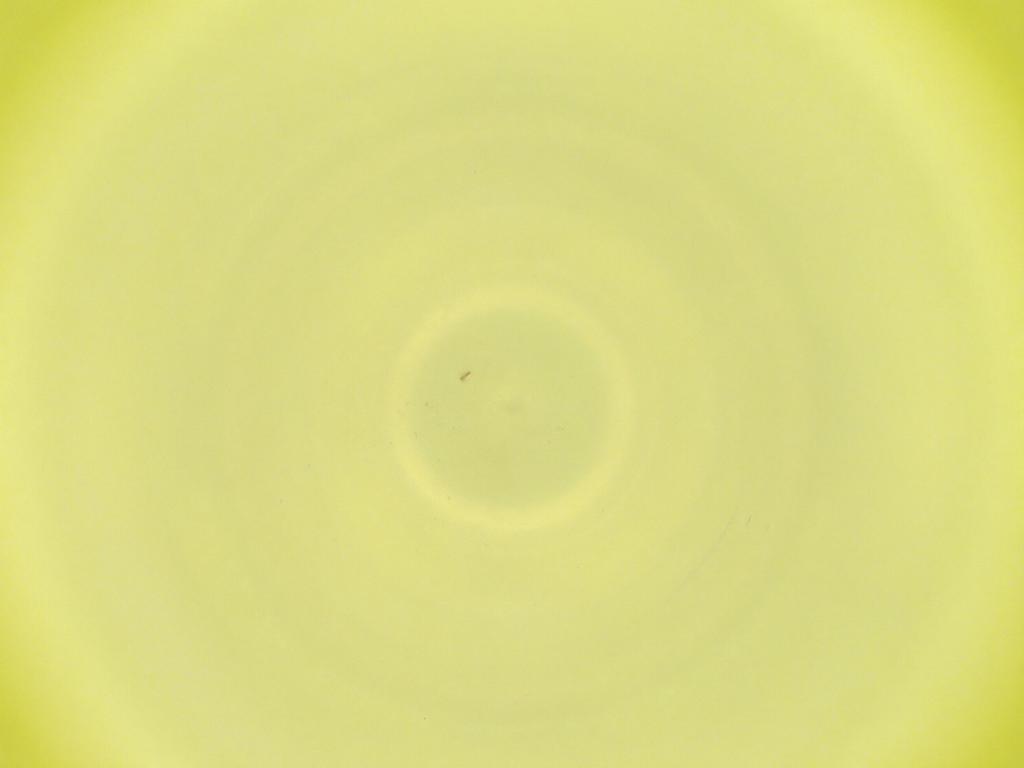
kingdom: Animalia
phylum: Arthropoda
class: Insecta
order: Diptera
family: Cecidomyiidae
